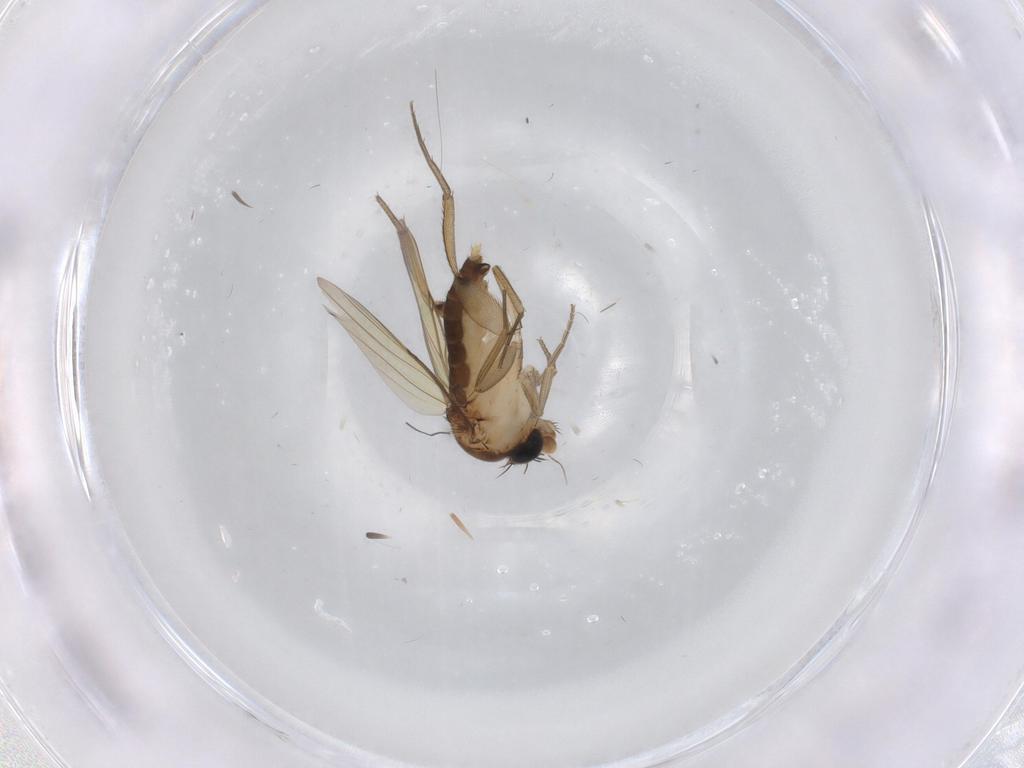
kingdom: Animalia
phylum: Arthropoda
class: Insecta
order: Diptera
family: Phoridae
